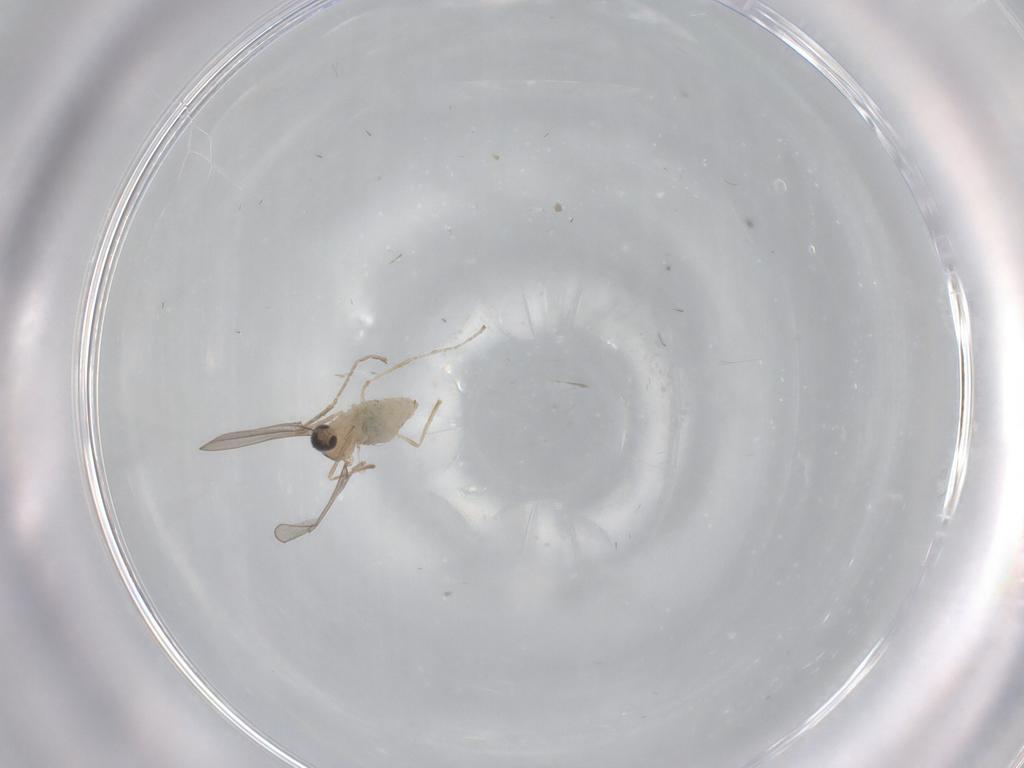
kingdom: Animalia
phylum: Arthropoda
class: Insecta
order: Diptera
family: Cecidomyiidae
